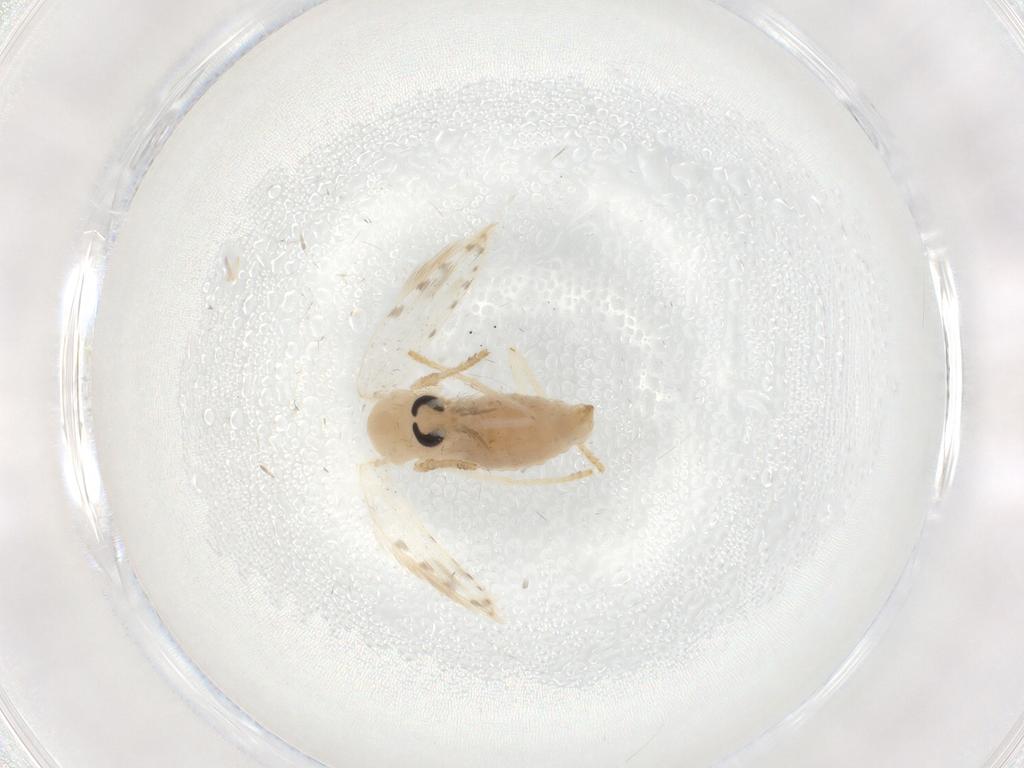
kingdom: Animalia
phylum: Arthropoda
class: Insecta
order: Diptera
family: Psychodidae
